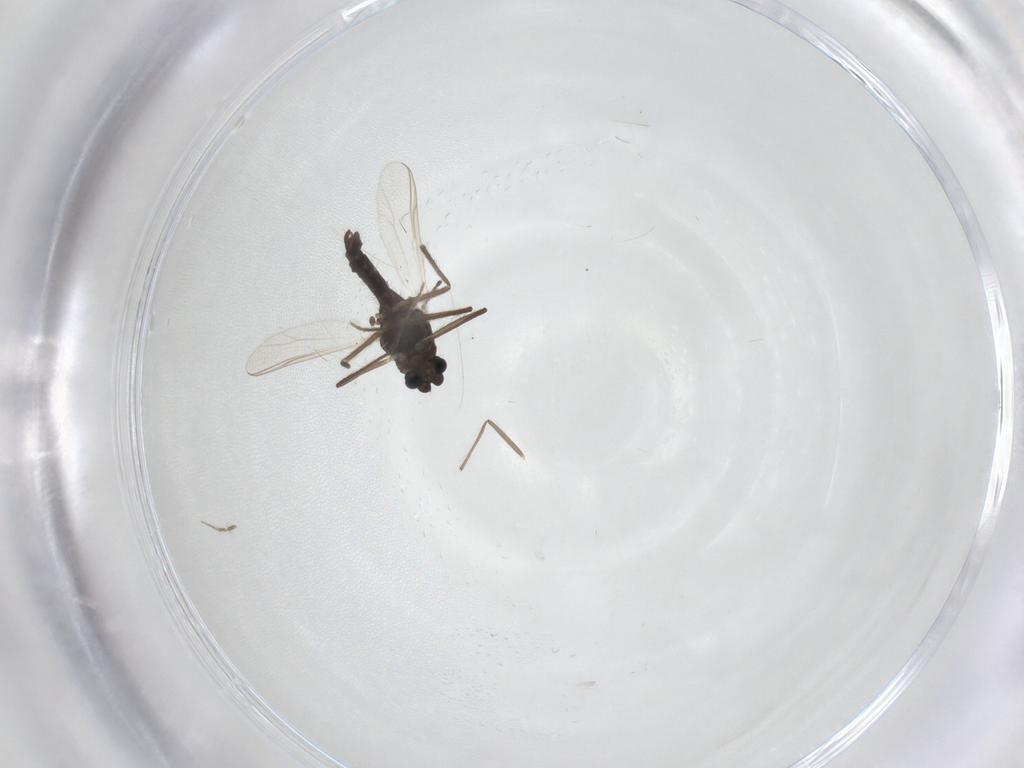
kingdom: Animalia
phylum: Arthropoda
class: Insecta
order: Diptera
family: Chironomidae
